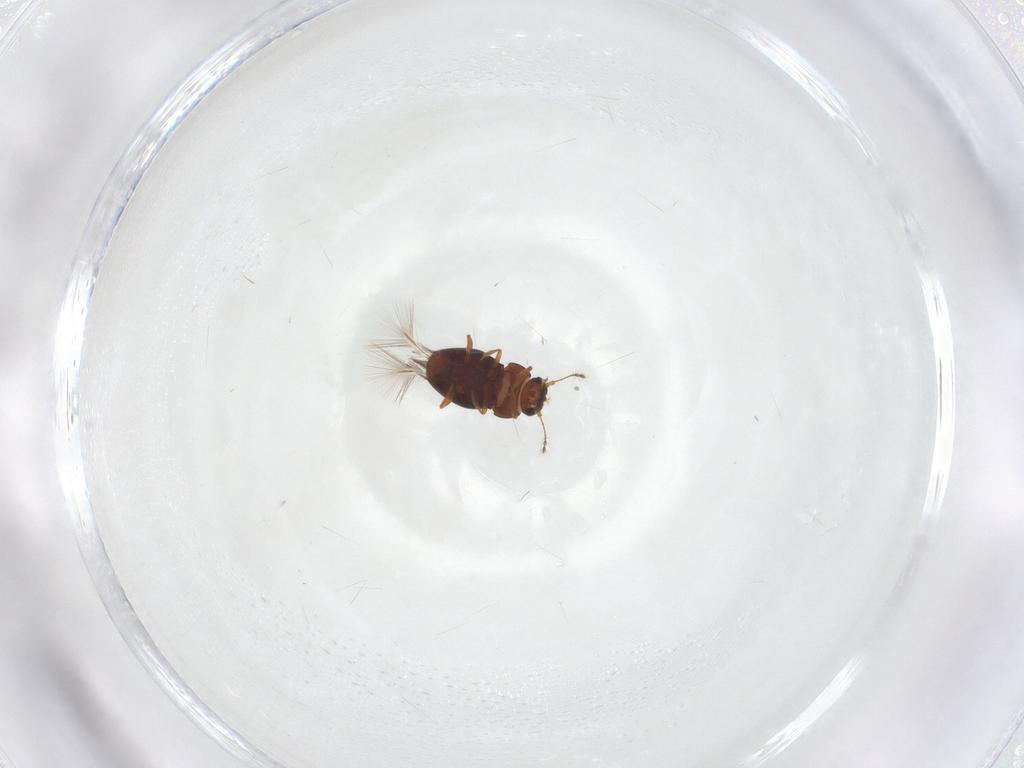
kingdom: Animalia
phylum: Arthropoda
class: Insecta
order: Coleoptera
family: Ptiliidae
